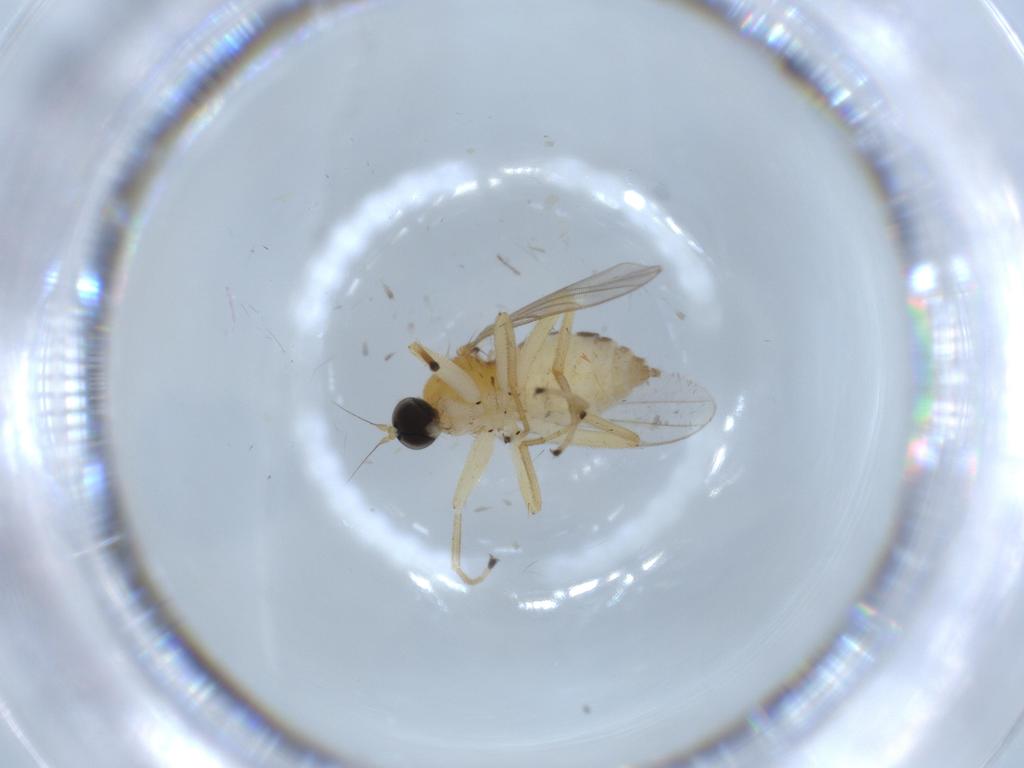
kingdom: Animalia
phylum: Arthropoda
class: Insecta
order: Diptera
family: Hybotidae
